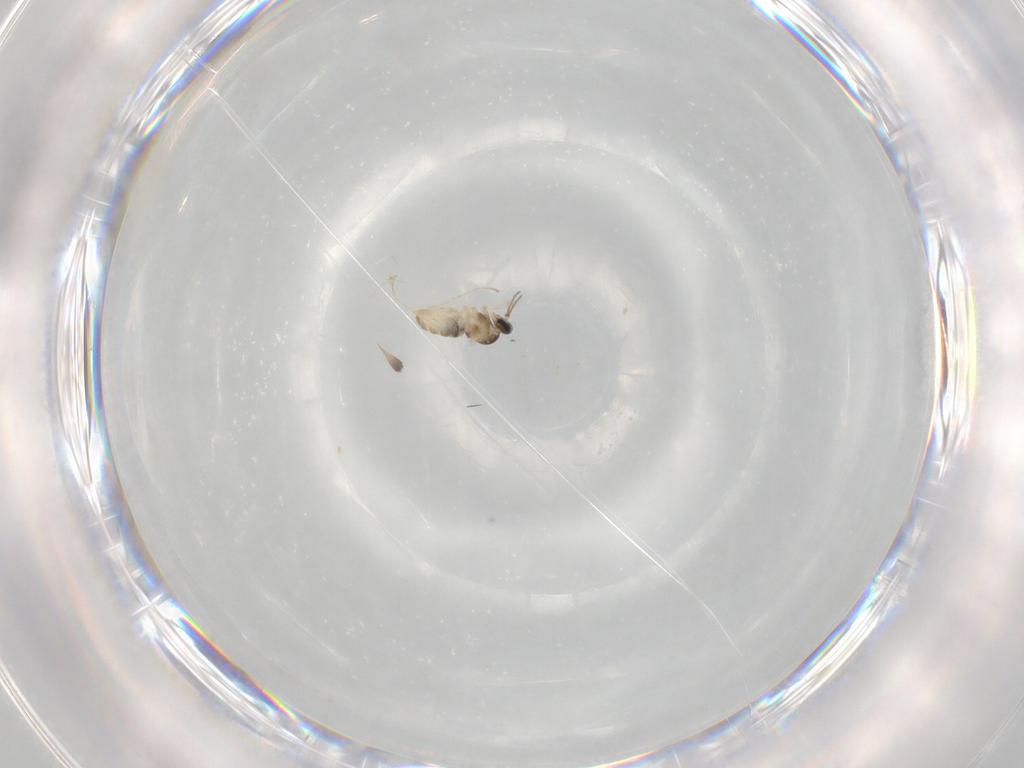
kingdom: Animalia
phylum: Arthropoda
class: Insecta
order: Diptera
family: Cecidomyiidae
